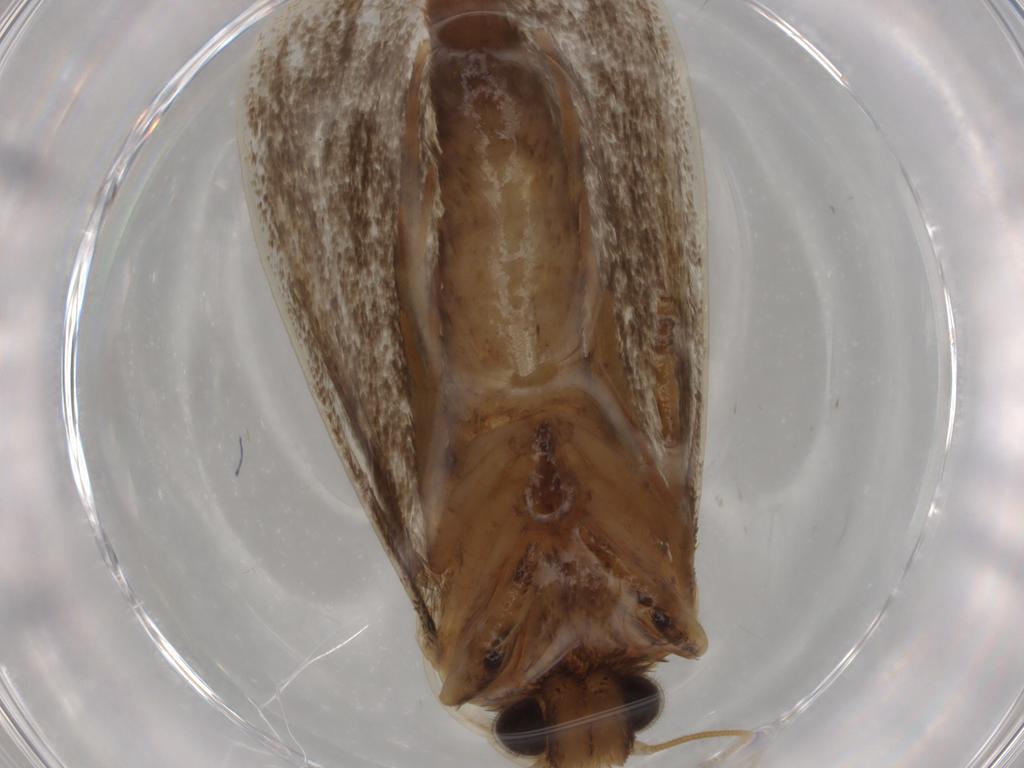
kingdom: Animalia
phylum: Arthropoda
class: Insecta
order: Lepidoptera
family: Tineidae
